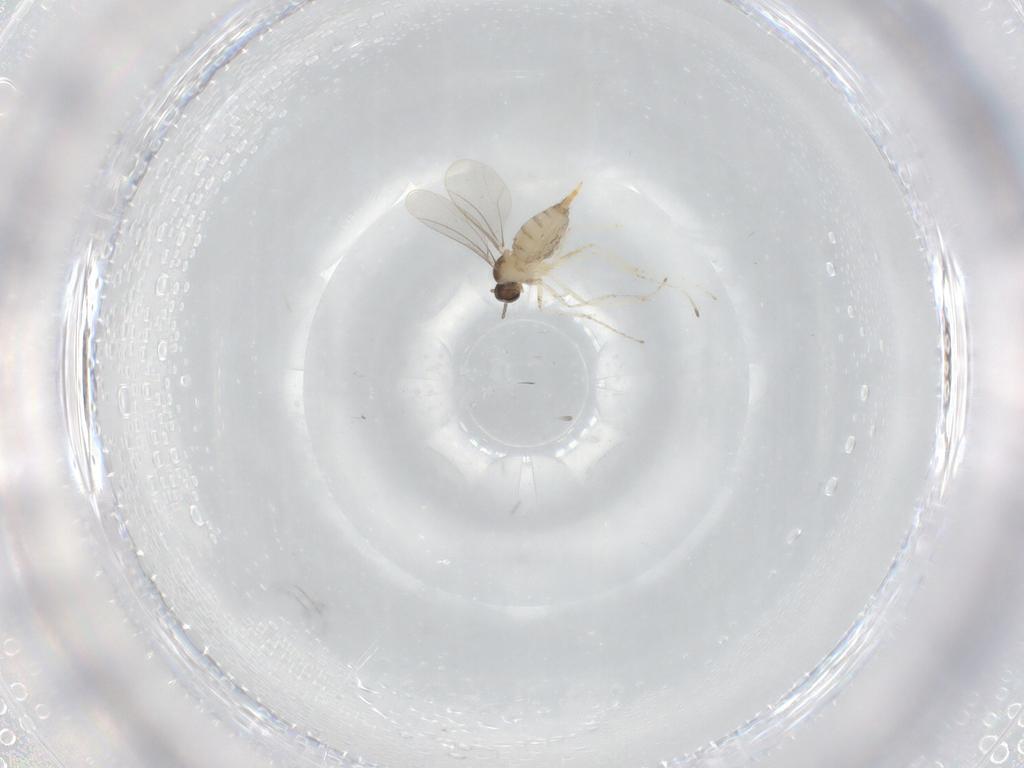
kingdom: Animalia
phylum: Arthropoda
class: Insecta
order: Diptera
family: Cecidomyiidae
